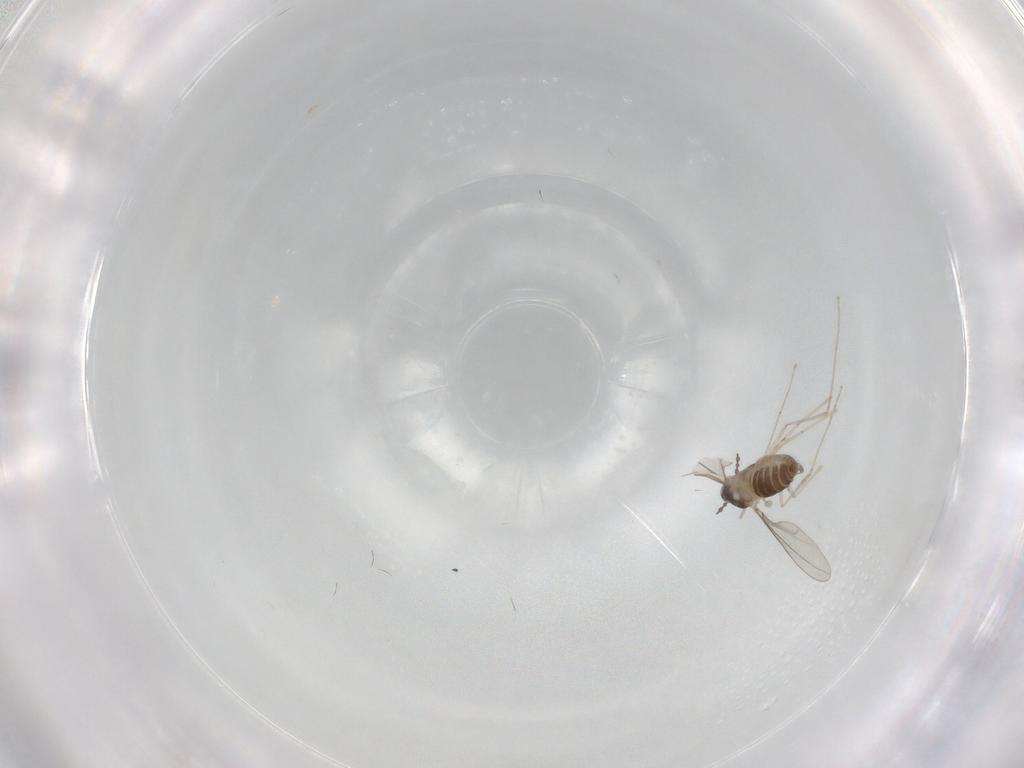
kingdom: Animalia
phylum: Arthropoda
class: Insecta
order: Diptera
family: Cecidomyiidae
